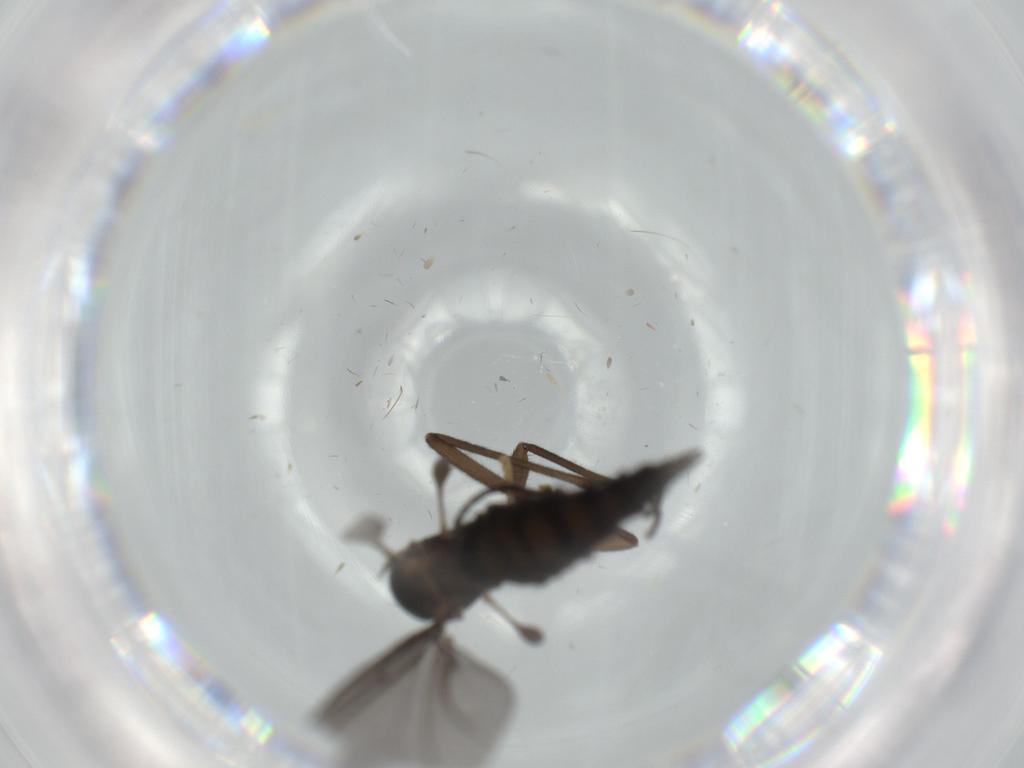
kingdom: Animalia
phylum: Arthropoda
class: Insecta
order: Diptera
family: Sciaridae
